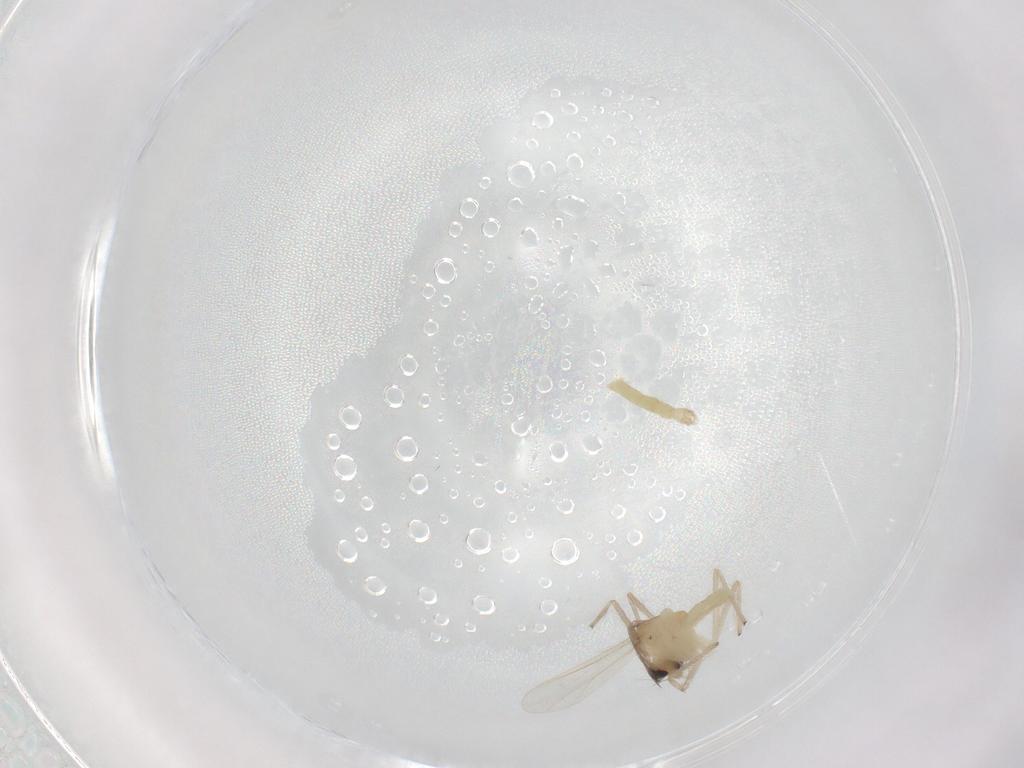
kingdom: Animalia
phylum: Arthropoda
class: Insecta
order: Diptera
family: Chironomidae
